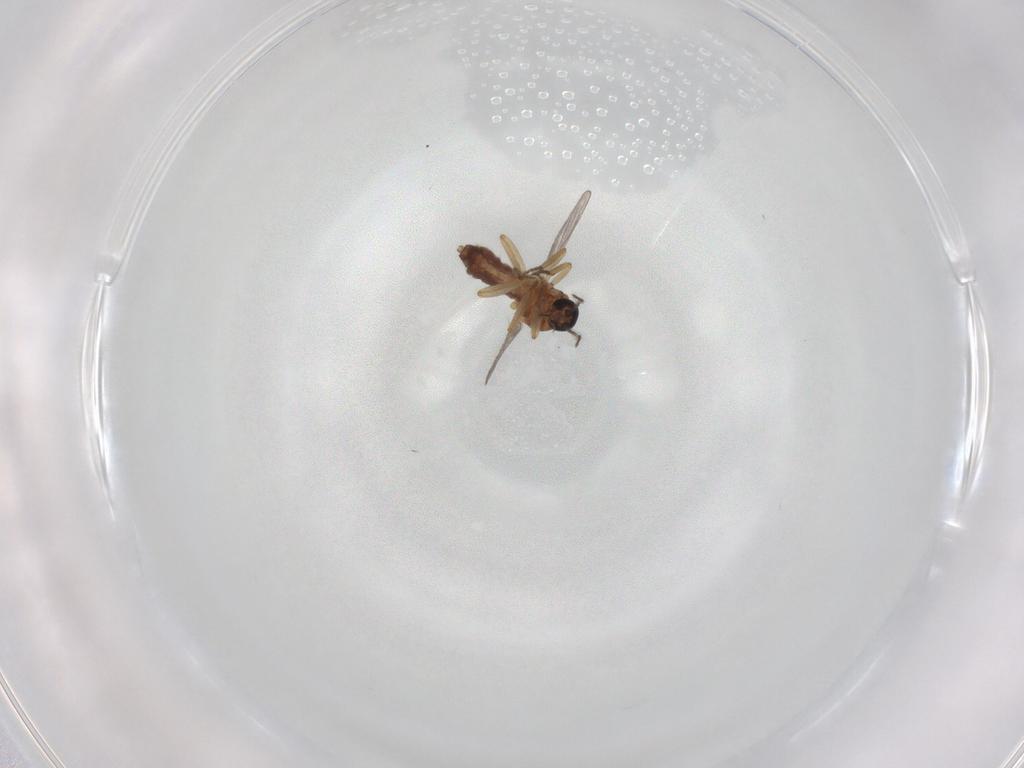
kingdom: Animalia
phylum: Arthropoda
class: Insecta
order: Diptera
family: Ceratopogonidae
